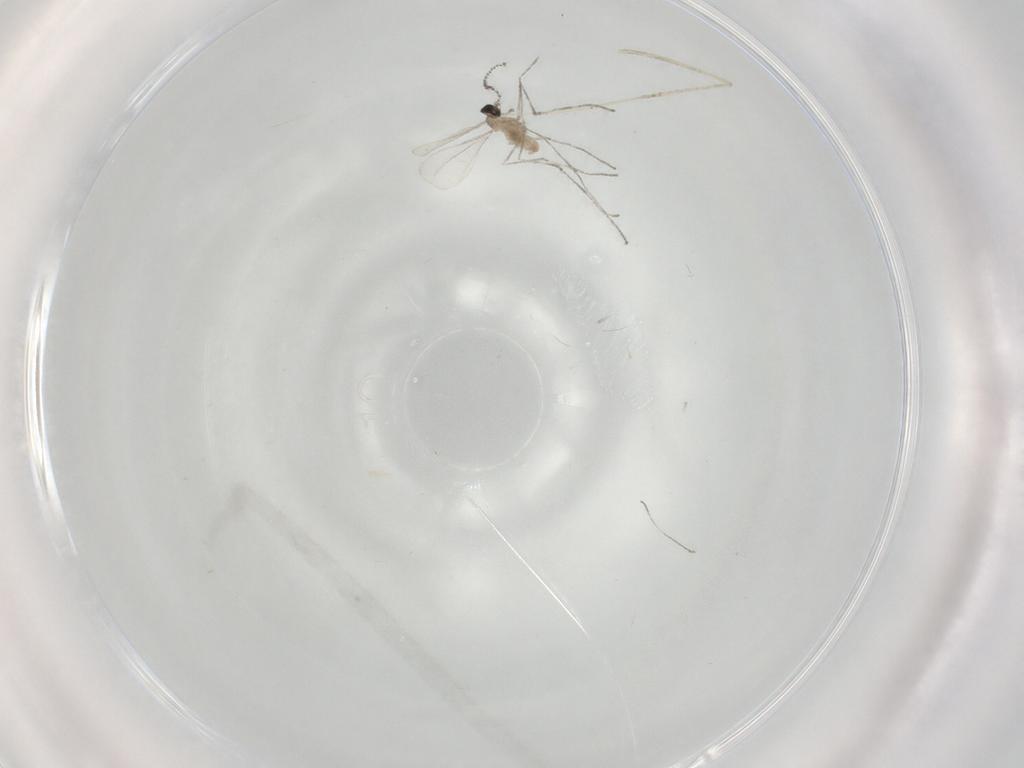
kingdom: Animalia
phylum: Arthropoda
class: Insecta
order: Diptera
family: Cecidomyiidae
